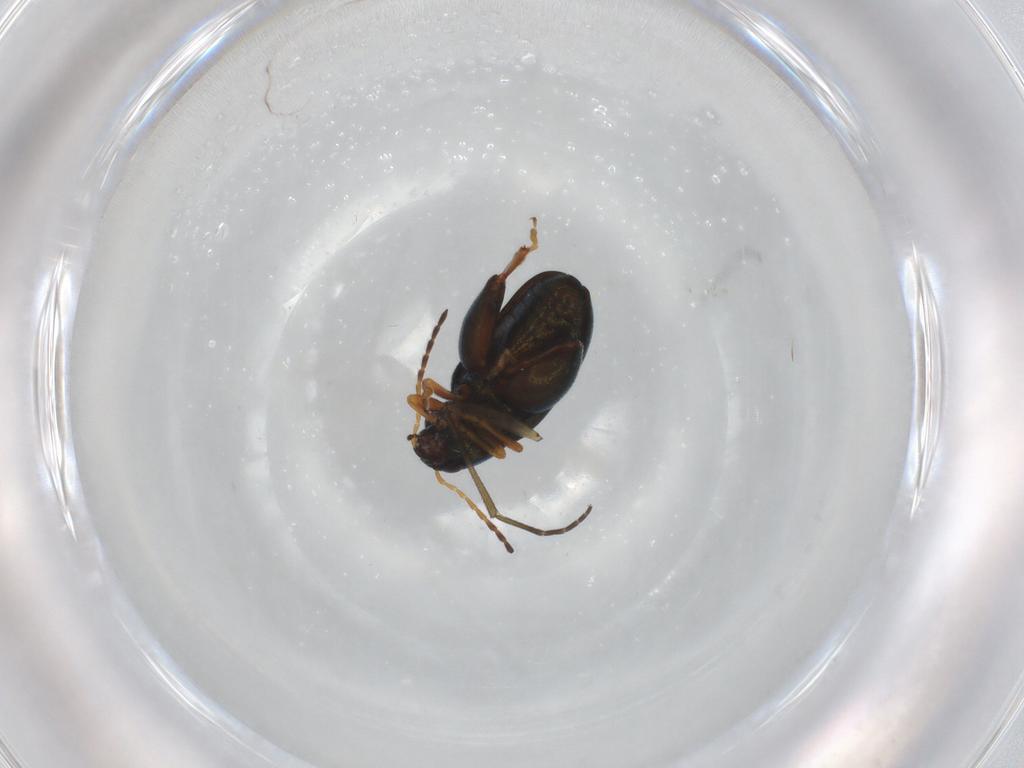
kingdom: Animalia
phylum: Arthropoda
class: Insecta
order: Coleoptera
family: Chrysomelidae
